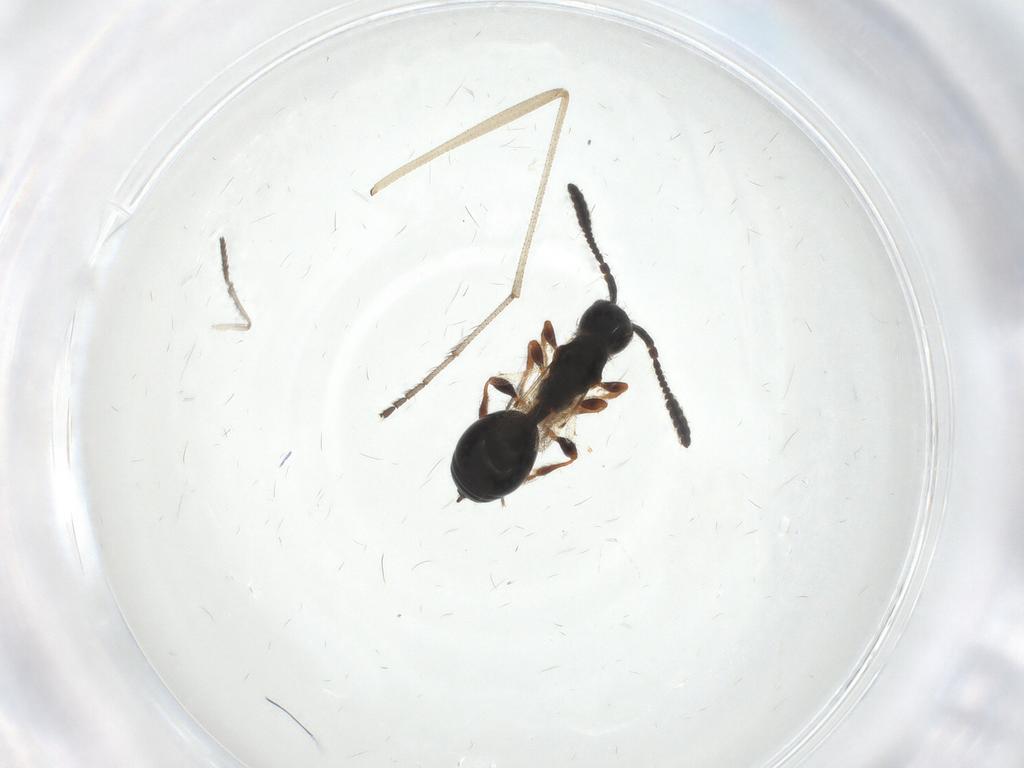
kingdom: Animalia
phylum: Arthropoda
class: Insecta
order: Hymenoptera
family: Diapriidae
